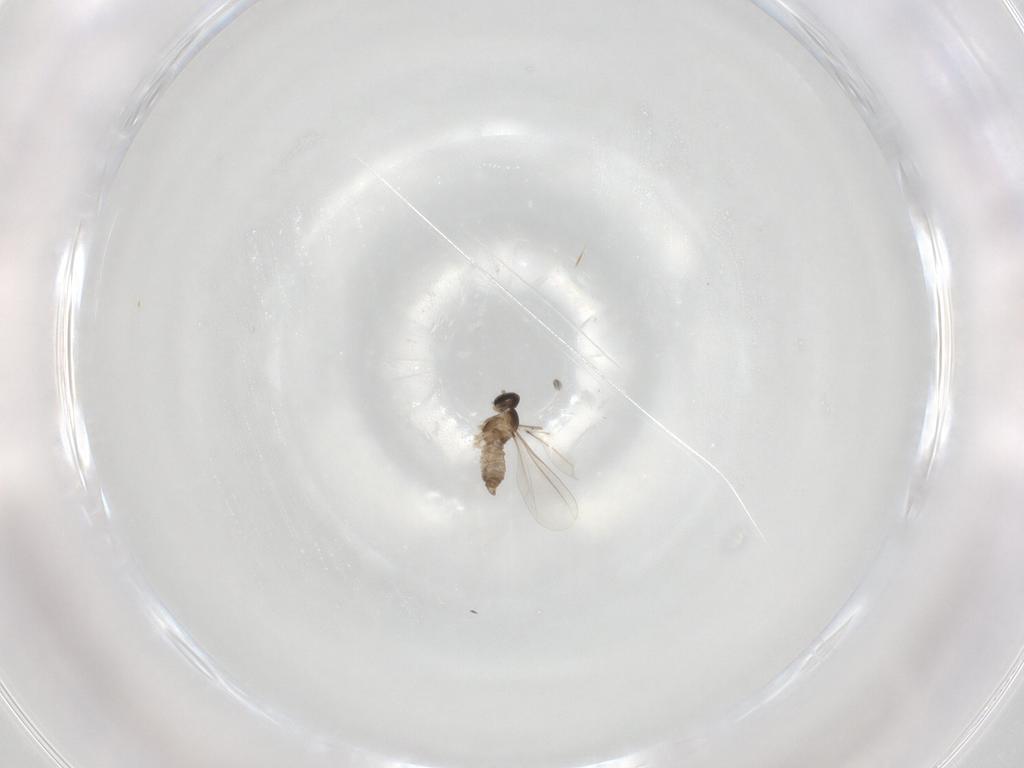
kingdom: Animalia
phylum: Arthropoda
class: Insecta
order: Diptera
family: Cecidomyiidae
